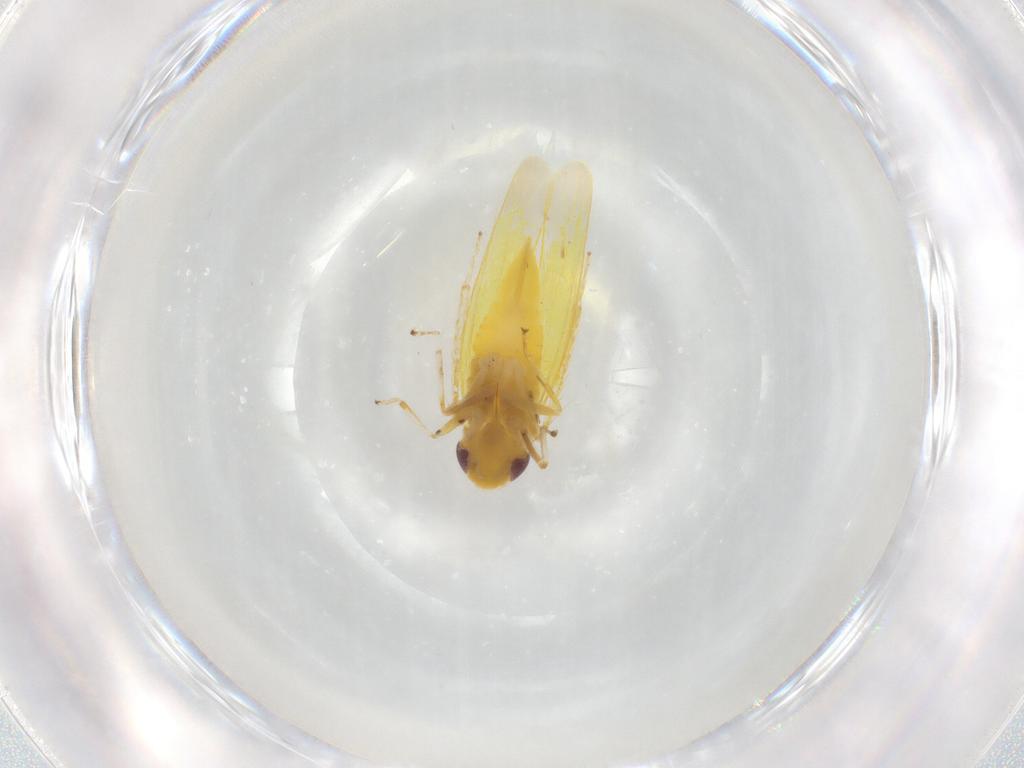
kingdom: Animalia
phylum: Arthropoda
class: Insecta
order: Hemiptera
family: Cicadellidae
